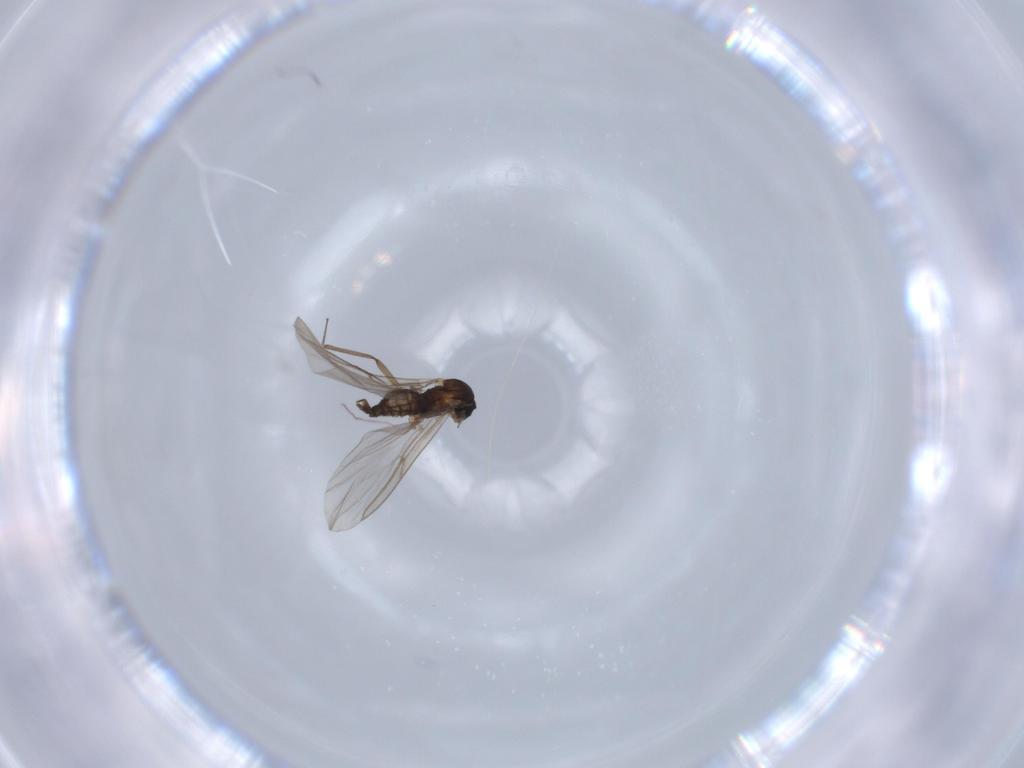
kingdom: Animalia
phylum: Arthropoda
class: Insecta
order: Diptera
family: Cecidomyiidae
